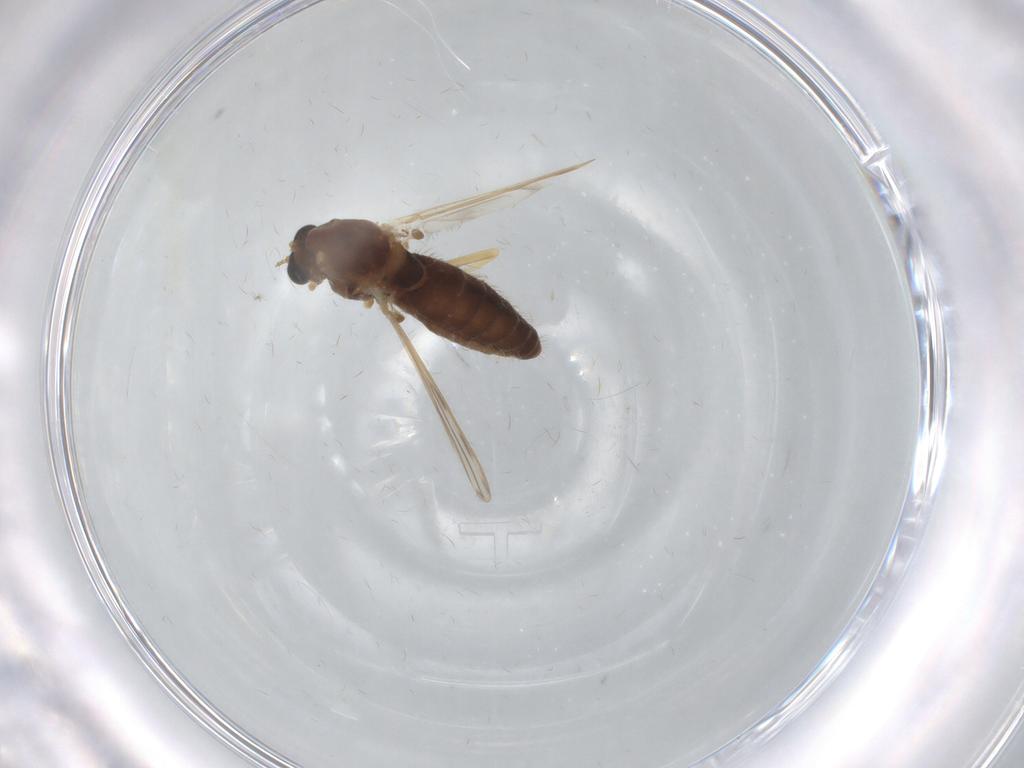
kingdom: Animalia
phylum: Arthropoda
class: Insecta
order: Diptera
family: Chironomidae
